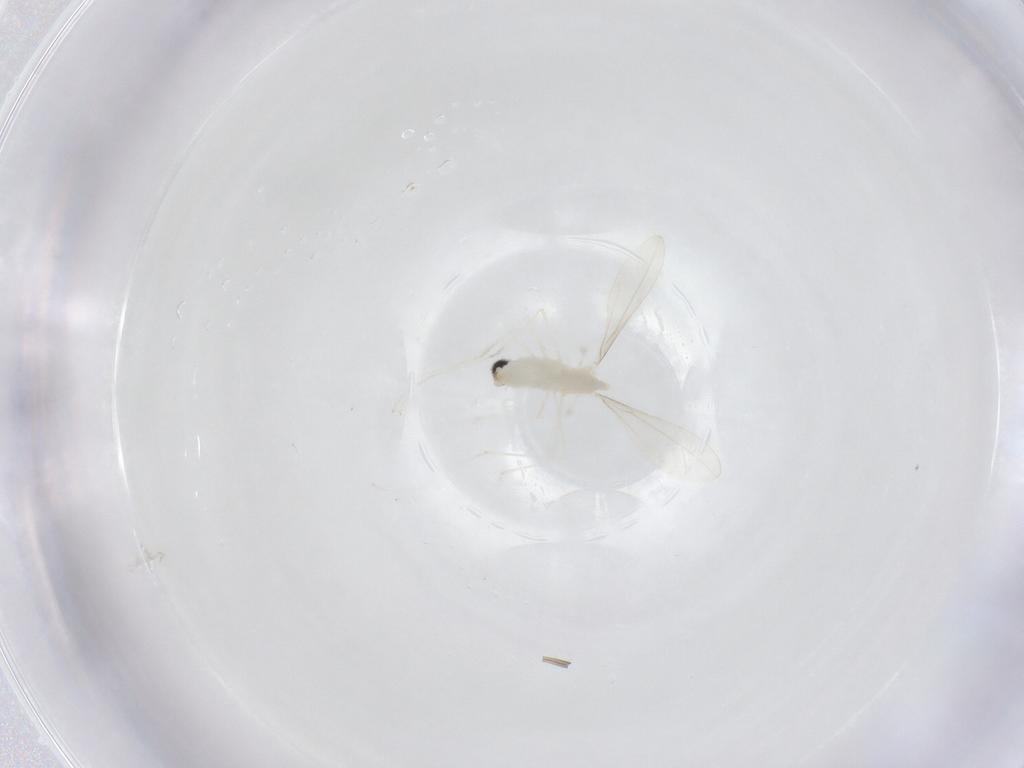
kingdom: Animalia
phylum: Arthropoda
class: Insecta
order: Diptera
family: Cecidomyiidae
